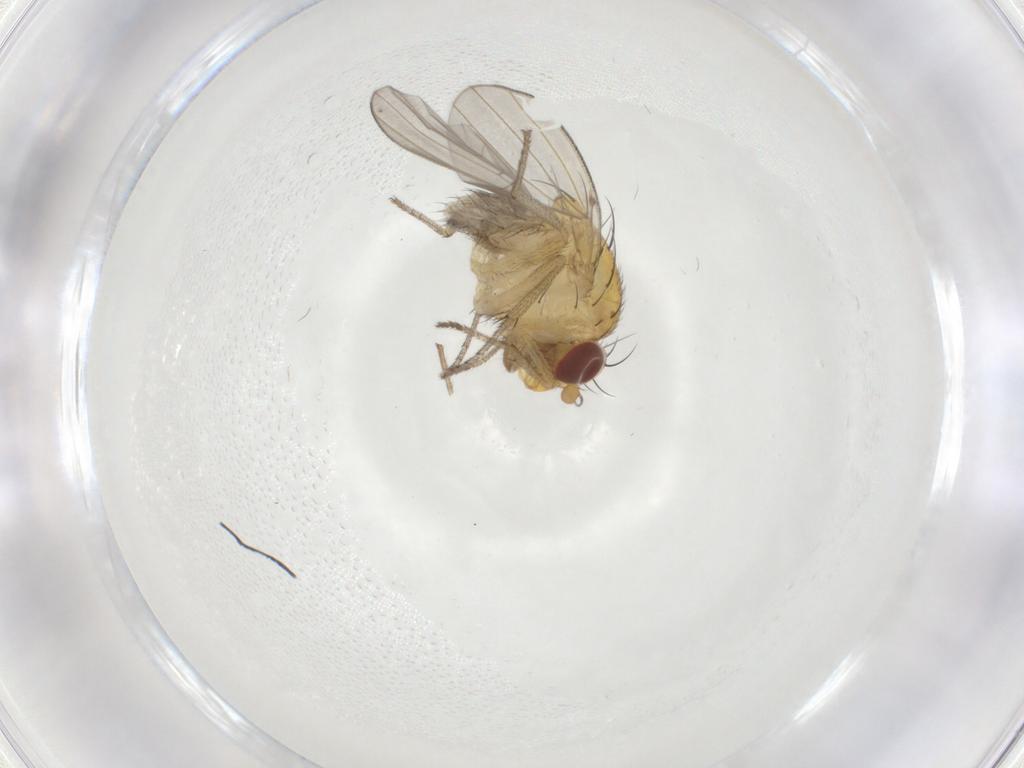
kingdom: Animalia
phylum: Arthropoda
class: Insecta
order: Diptera
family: Chironomidae
